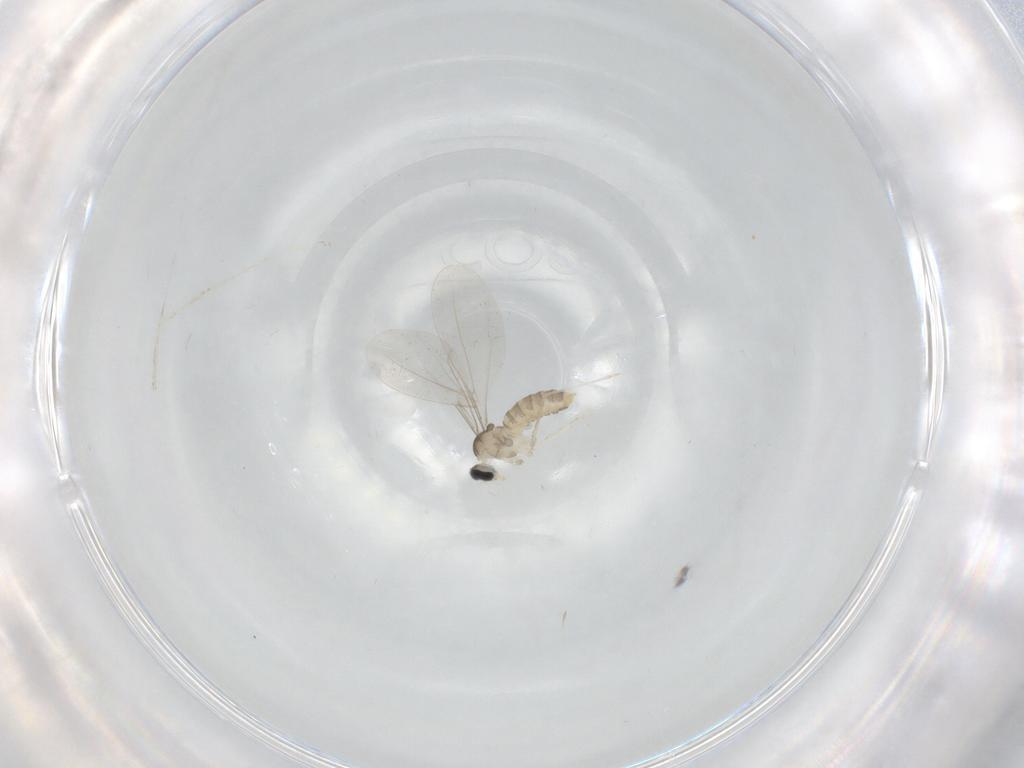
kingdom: Animalia
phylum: Arthropoda
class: Insecta
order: Diptera
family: Cecidomyiidae
